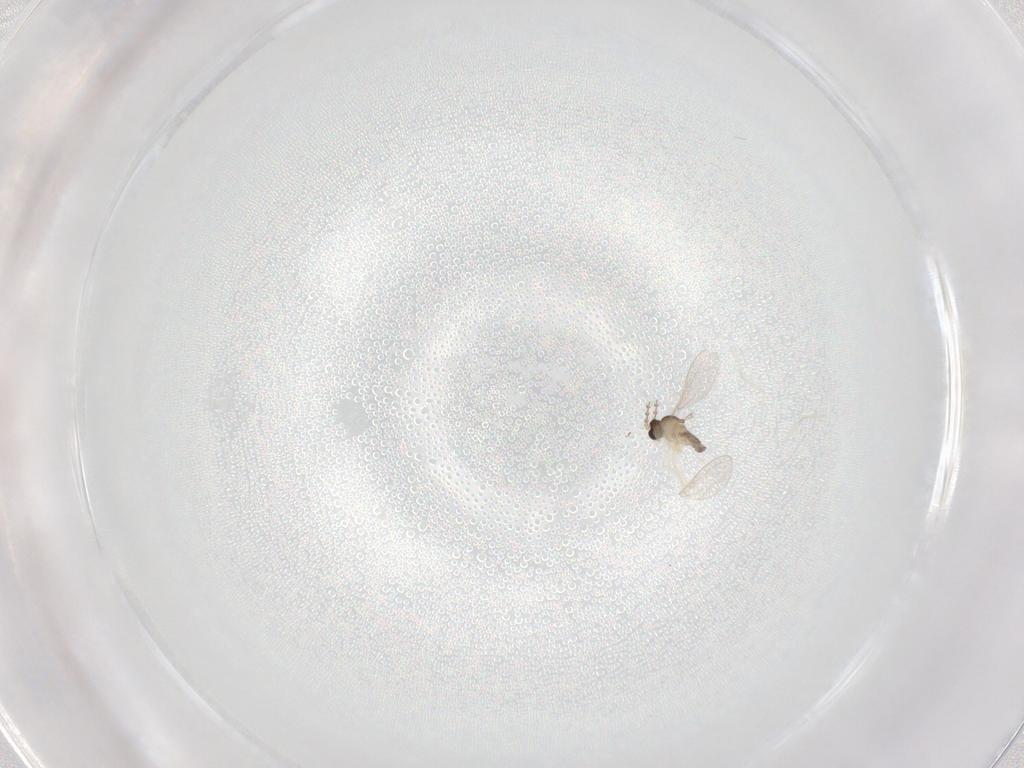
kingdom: Animalia
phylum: Arthropoda
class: Insecta
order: Diptera
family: Cecidomyiidae
